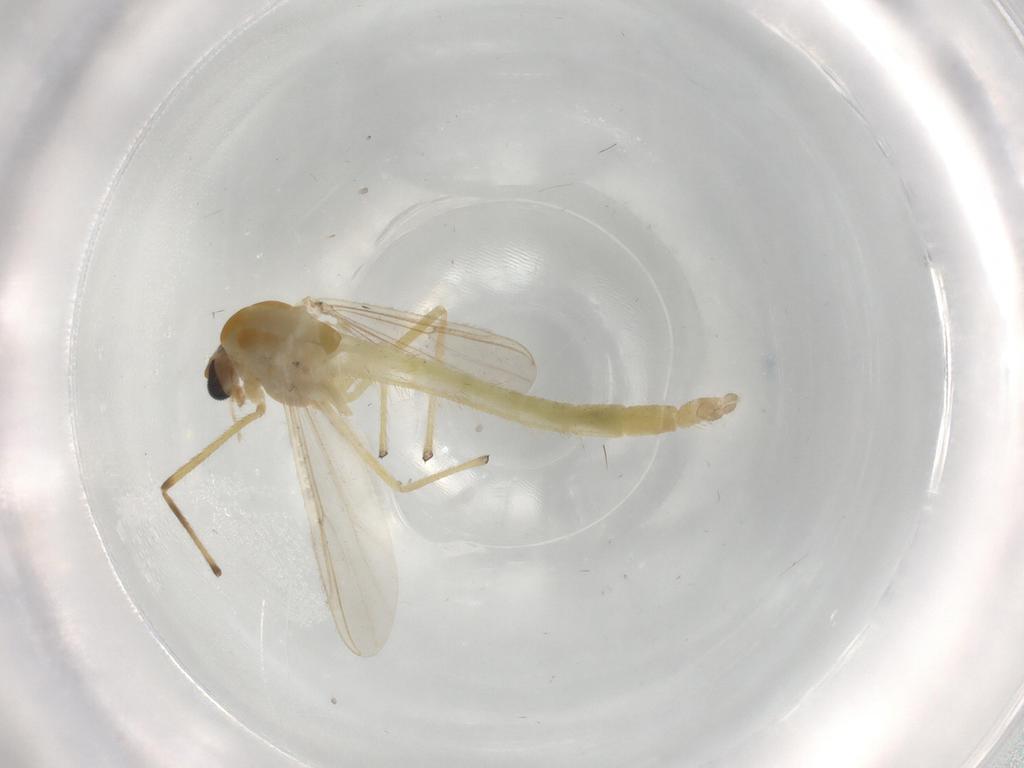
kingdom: Animalia
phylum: Arthropoda
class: Insecta
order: Diptera
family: Chironomidae
